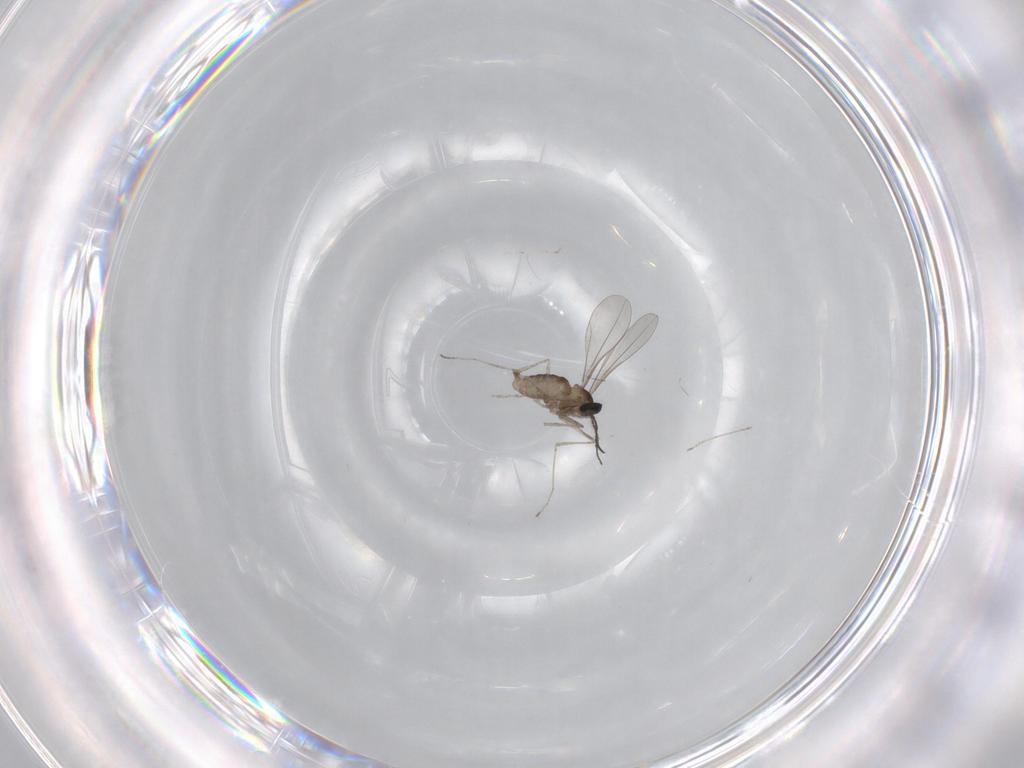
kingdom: Animalia
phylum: Arthropoda
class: Insecta
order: Diptera
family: Cecidomyiidae
